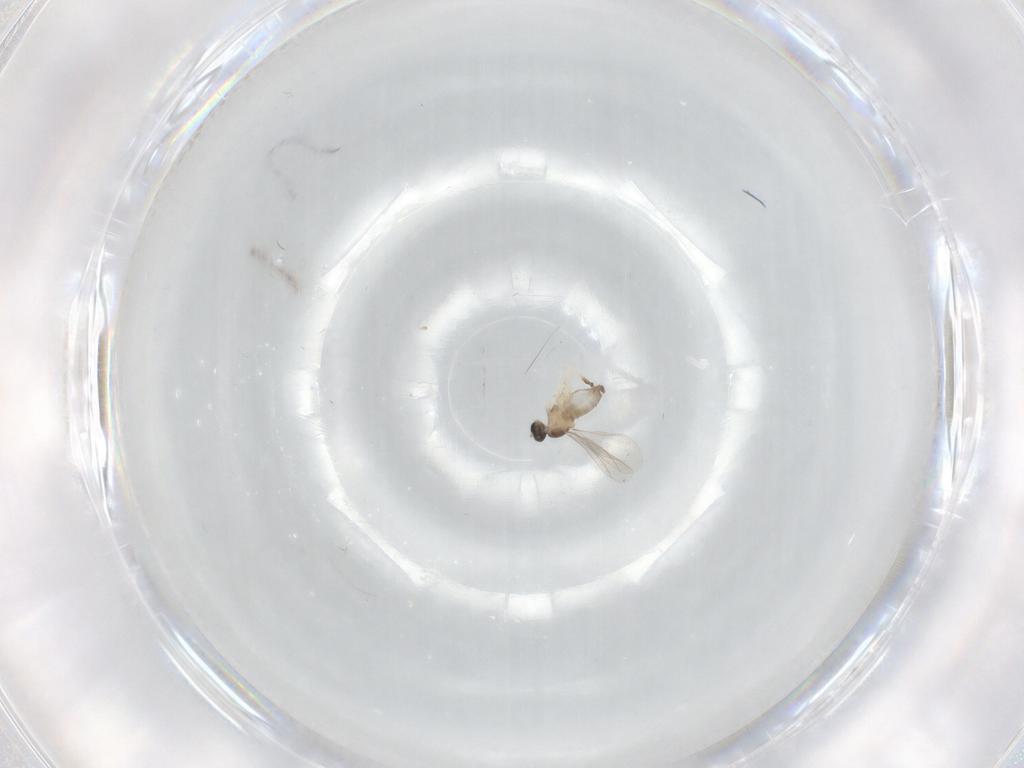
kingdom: Animalia
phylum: Arthropoda
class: Insecta
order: Diptera
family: Cecidomyiidae
